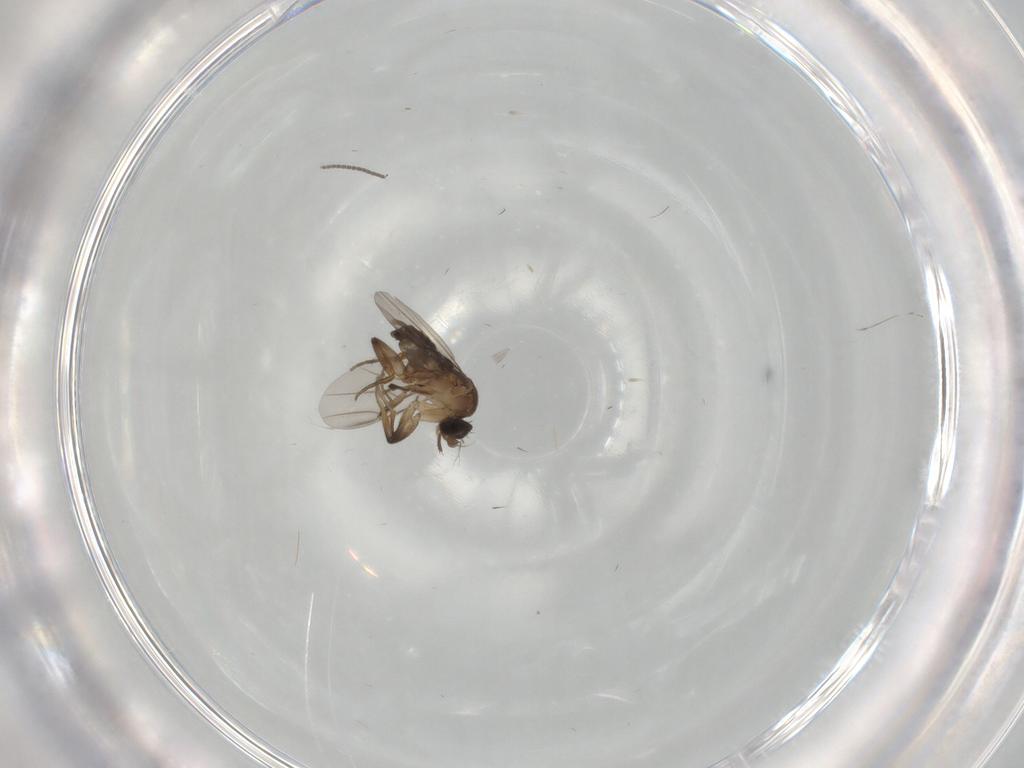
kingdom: Animalia
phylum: Arthropoda
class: Insecta
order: Diptera
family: Phoridae
